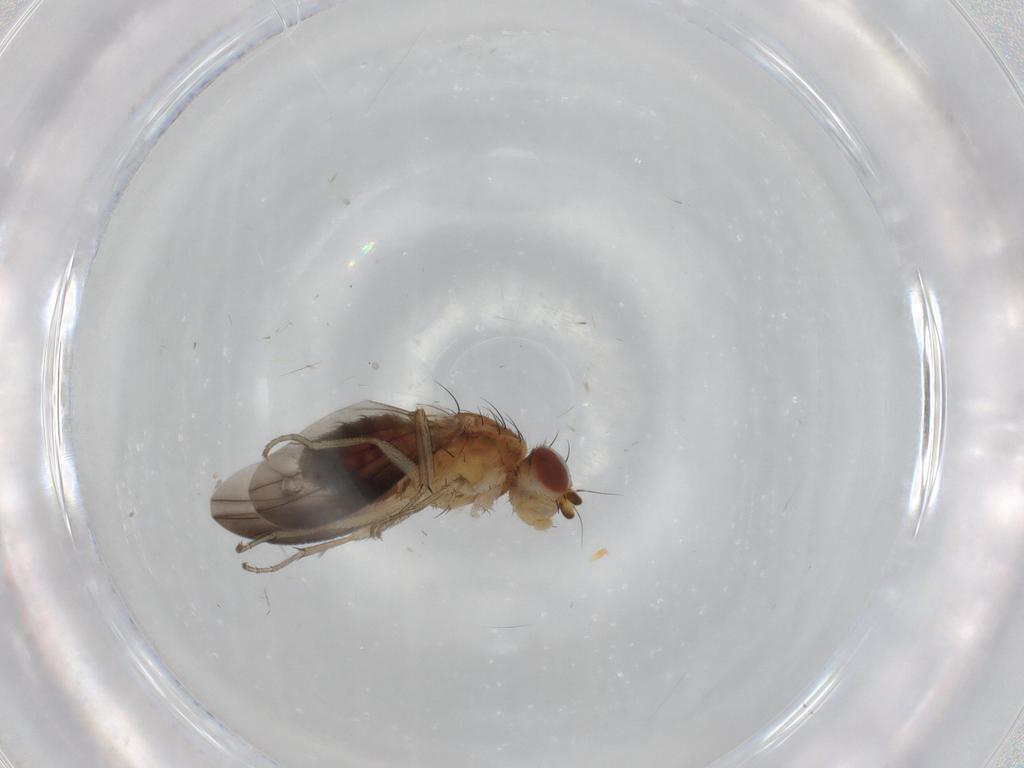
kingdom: Animalia
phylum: Arthropoda
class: Insecta
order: Diptera
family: Heleomyzidae
